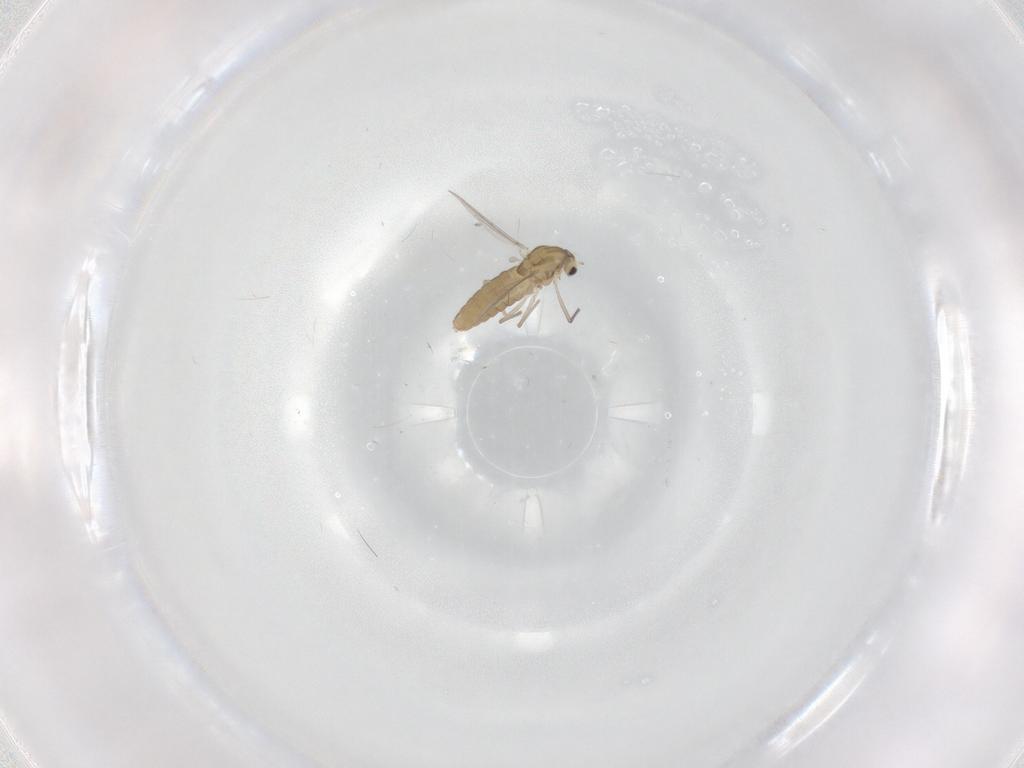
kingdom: Animalia
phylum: Arthropoda
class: Insecta
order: Diptera
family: Chironomidae
